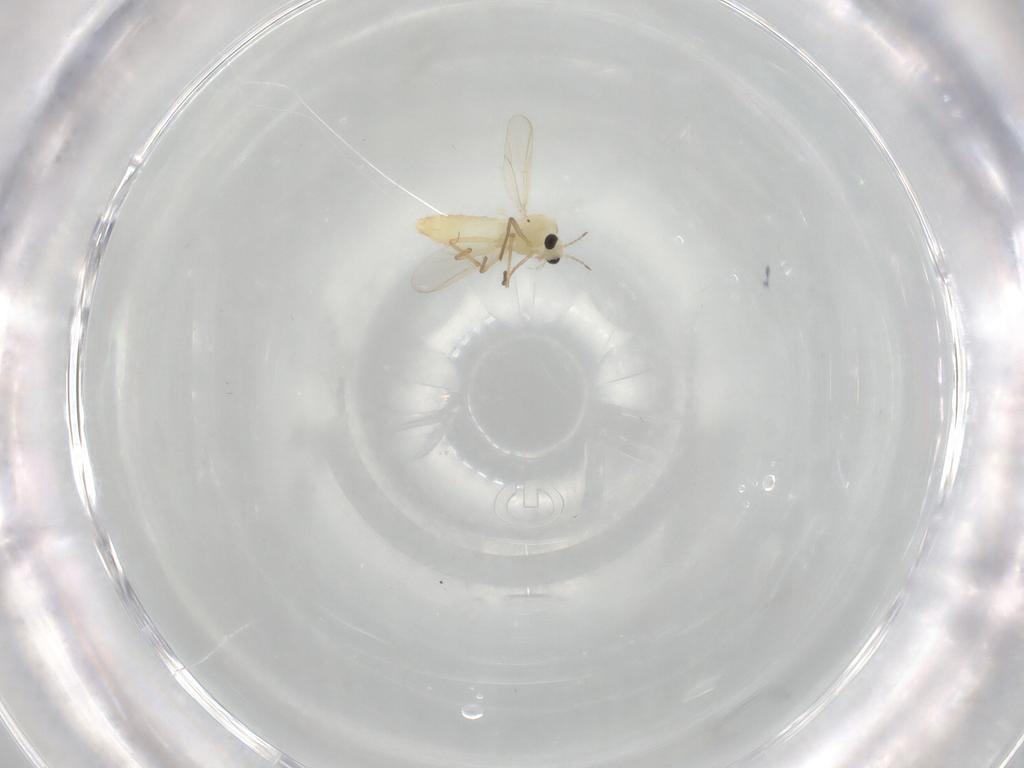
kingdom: Animalia
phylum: Arthropoda
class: Insecta
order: Diptera
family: Chironomidae
